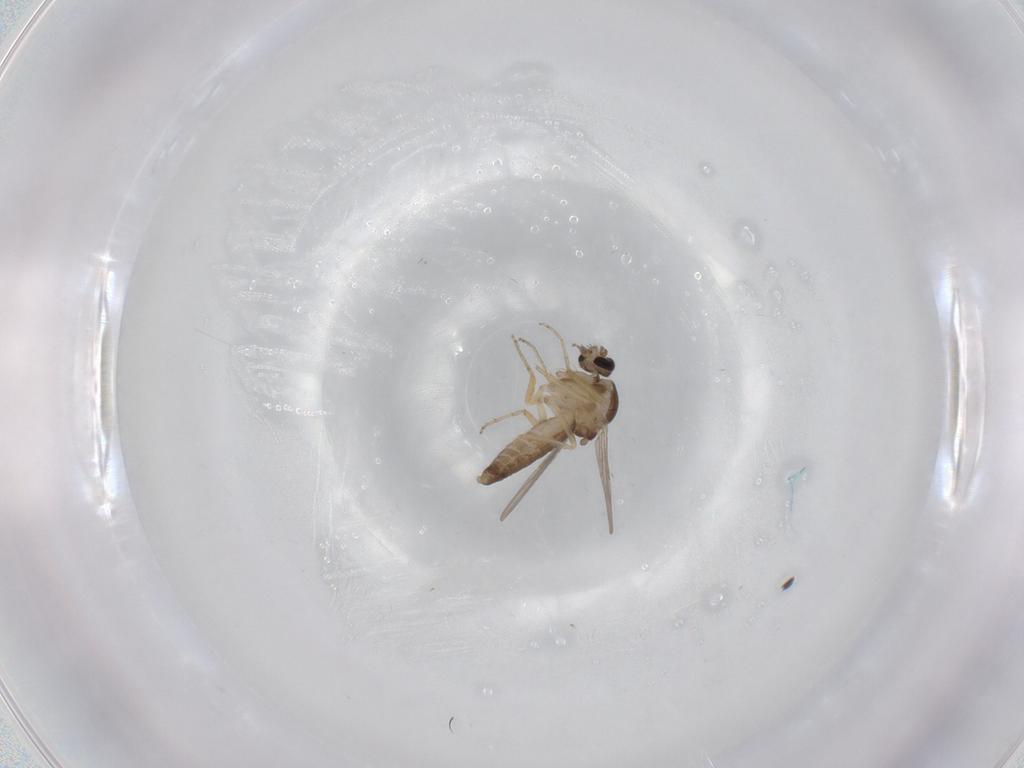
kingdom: Animalia
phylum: Arthropoda
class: Insecta
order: Diptera
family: Ceratopogonidae
